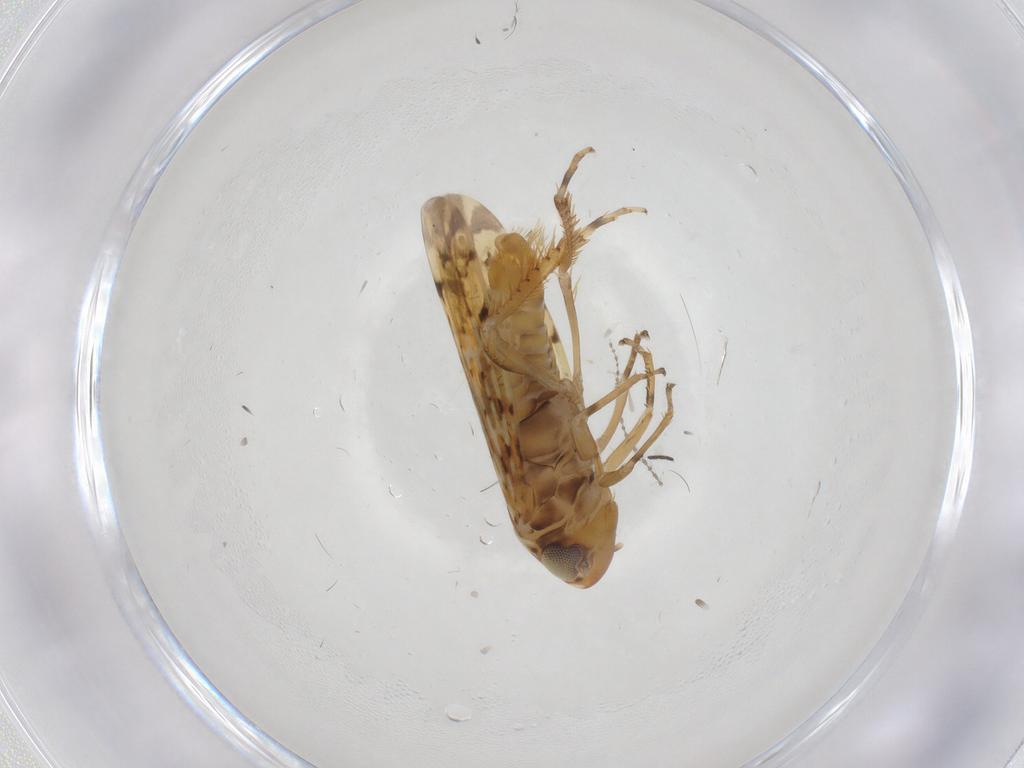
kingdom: Animalia
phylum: Arthropoda
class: Insecta
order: Hemiptera
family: Cicadellidae
